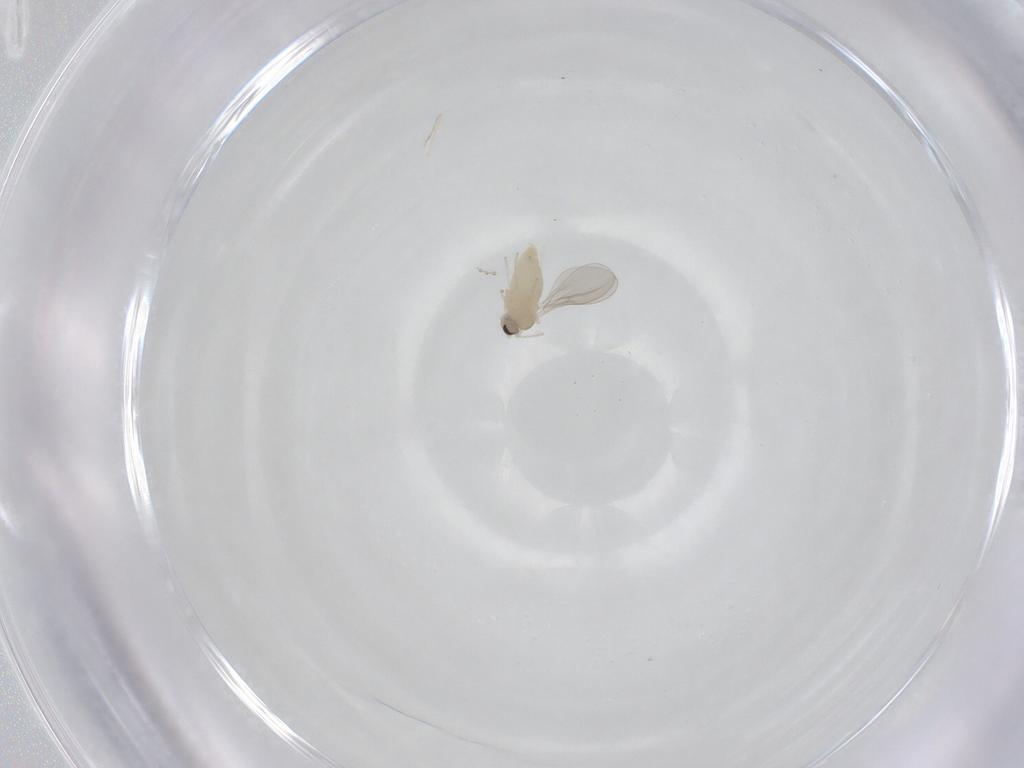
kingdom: Animalia
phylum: Arthropoda
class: Insecta
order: Diptera
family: Cecidomyiidae
